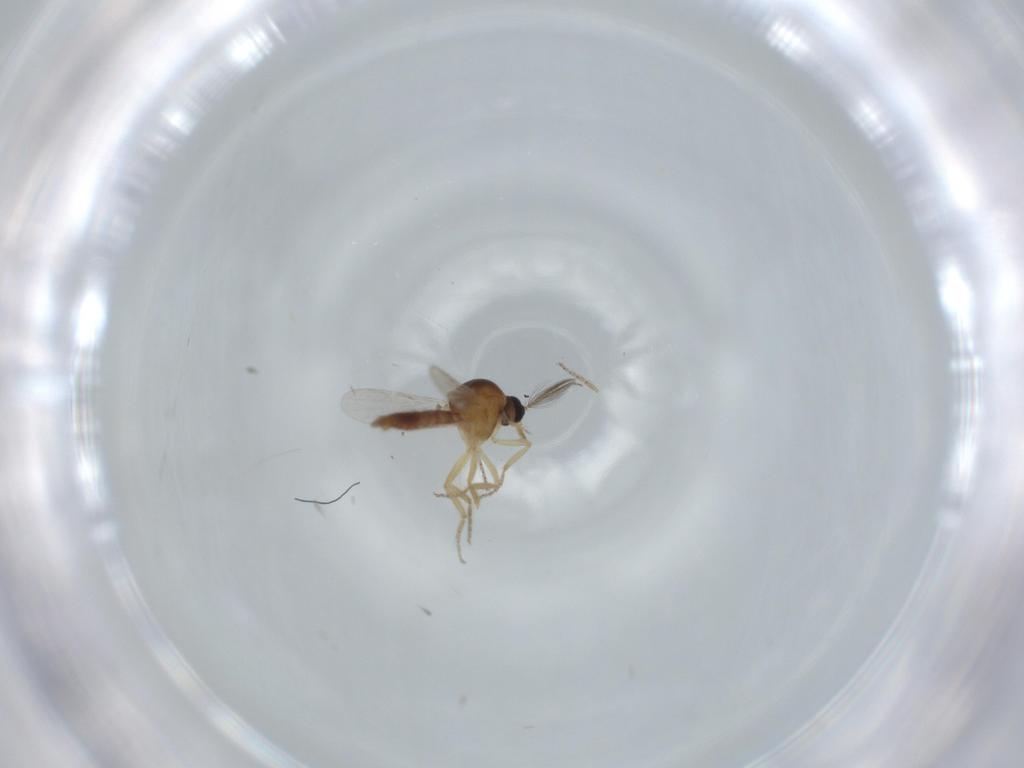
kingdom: Animalia
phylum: Arthropoda
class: Insecta
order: Diptera
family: Ceratopogonidae
